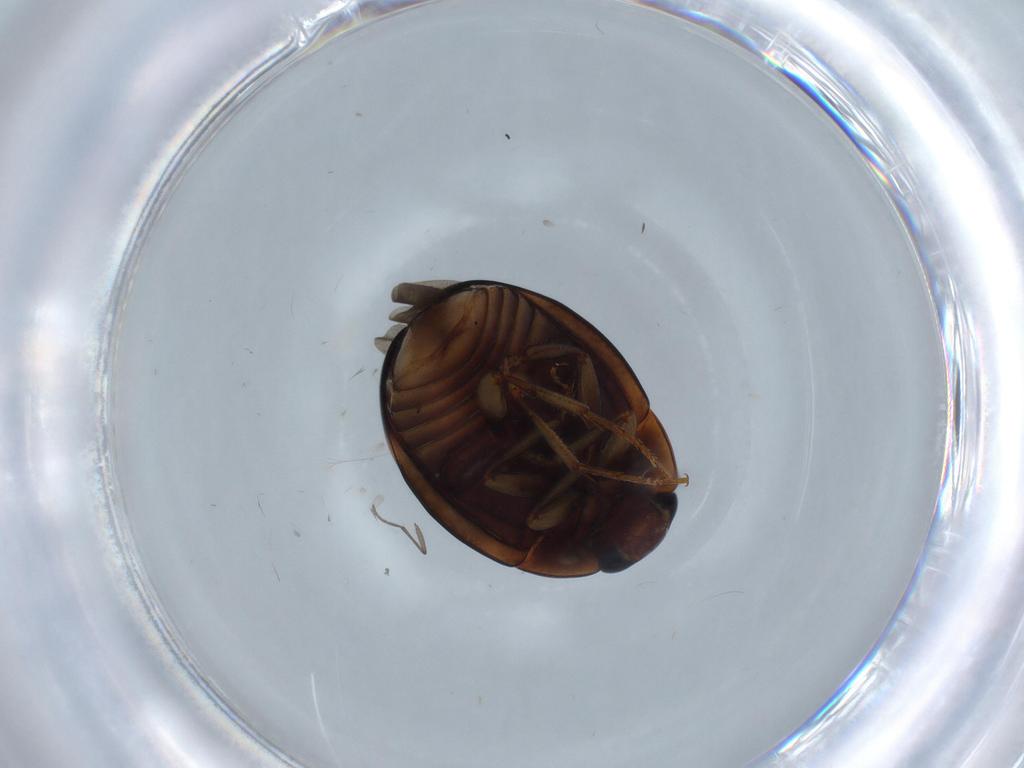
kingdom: Animalia
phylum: Arthropoda
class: Insecta
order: Coleoptera
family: Nitidulidae
